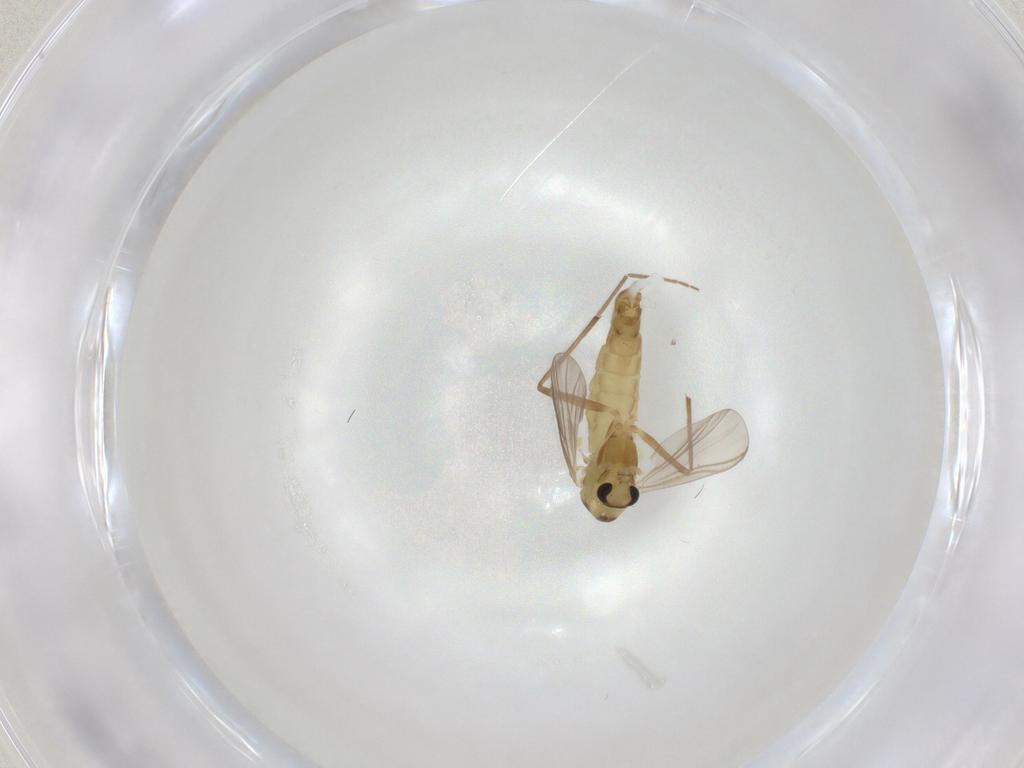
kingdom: Animalia
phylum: Arthropoda
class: Insecta
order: Diptera
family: Chironomidae
